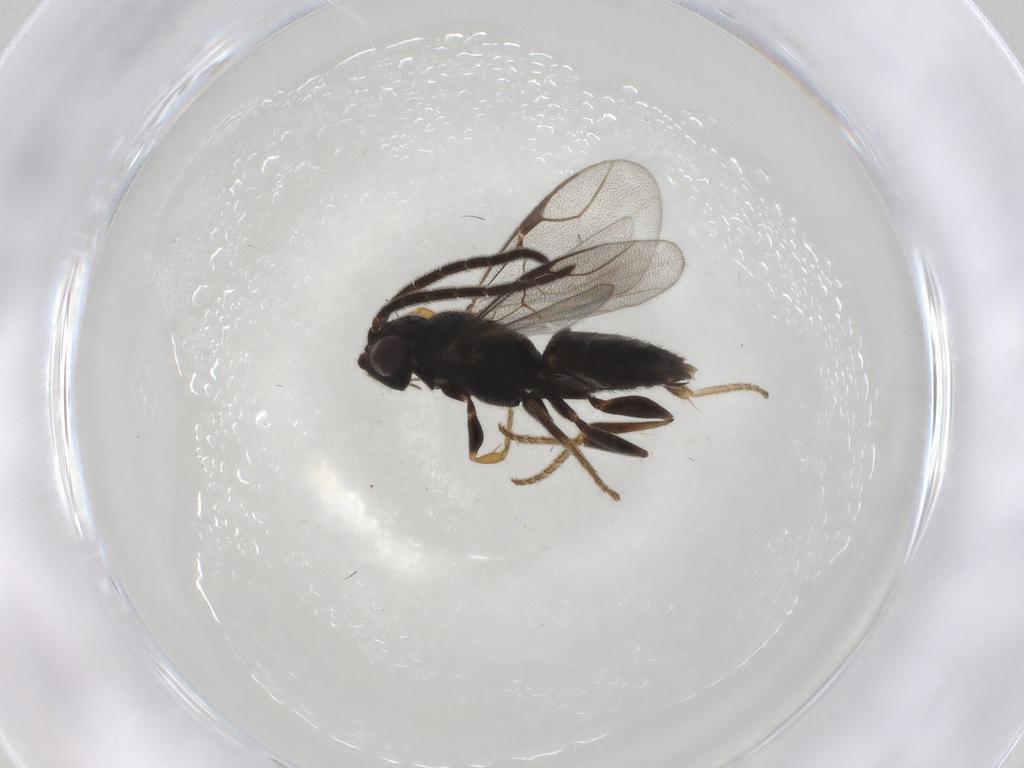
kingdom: Animalia
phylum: Arthropoda
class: Insecta
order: Hymenoptera
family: Dryinidae
